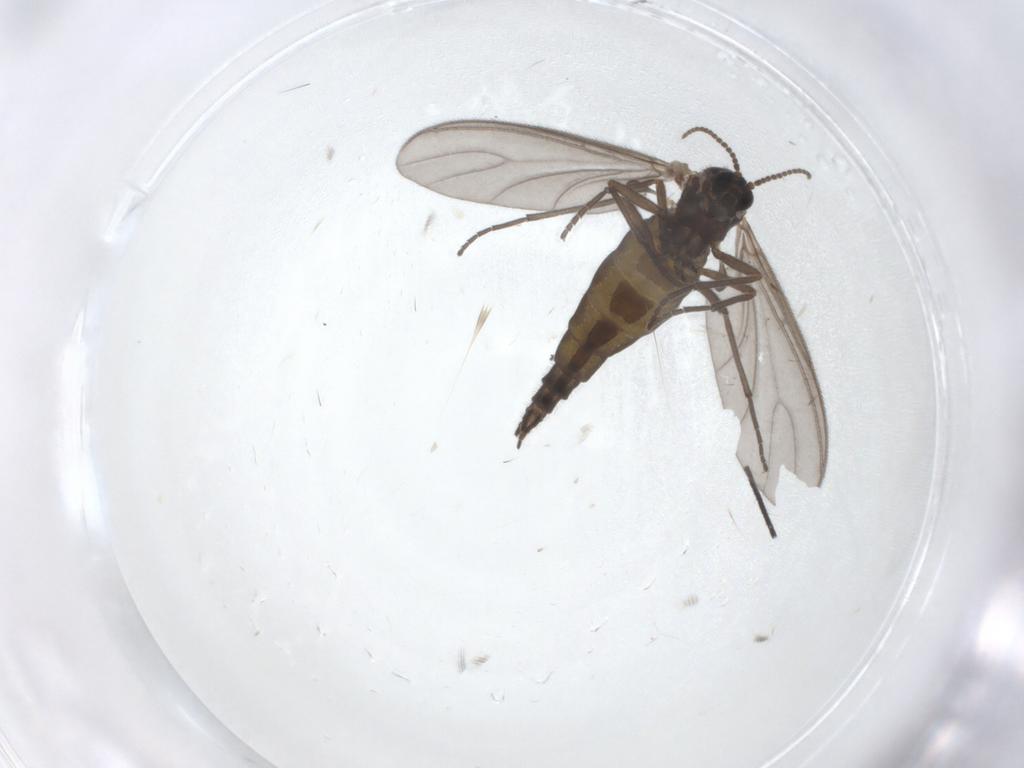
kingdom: Animalia
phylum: Arthropoda
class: Insecta
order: Diptera
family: Sciaridae
